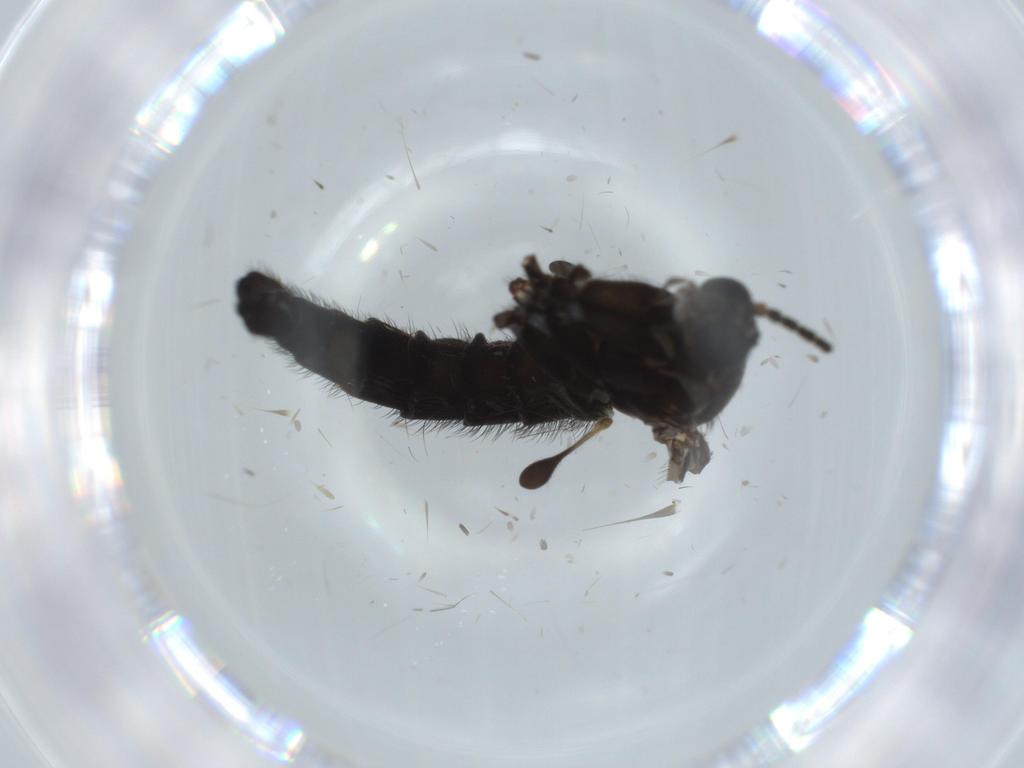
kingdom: Animalia
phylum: Arthropoda
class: Insecta
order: Diptera
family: Sciaridae
